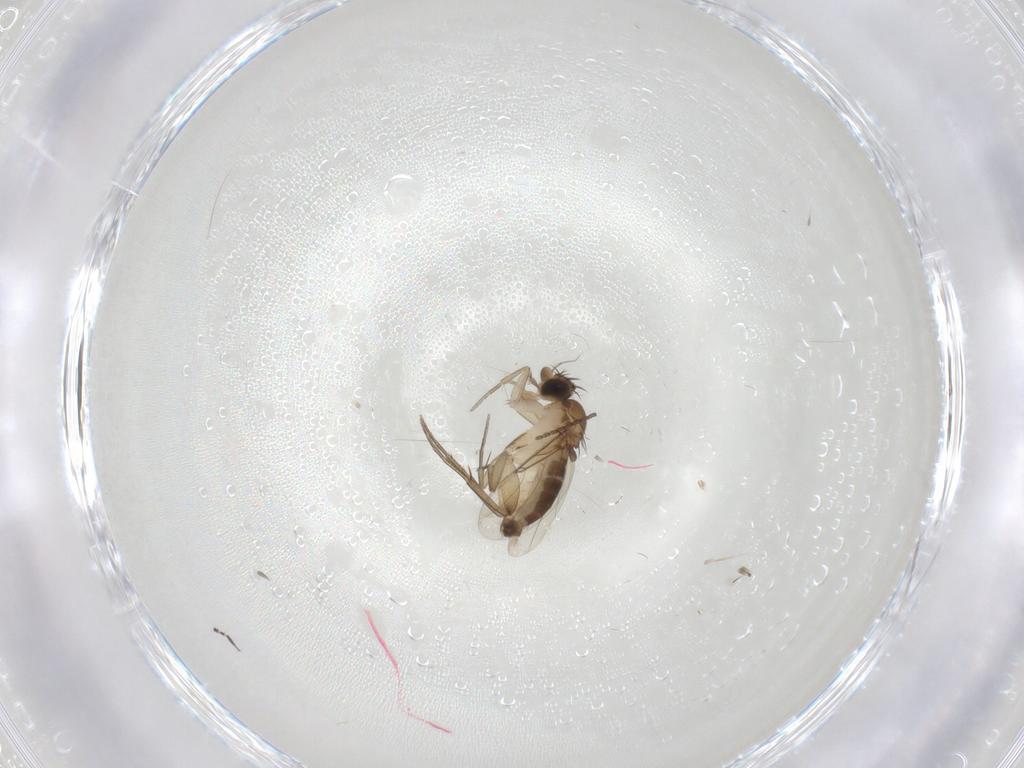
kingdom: Animalia
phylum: Arthropoda
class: Insecta
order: Diptera
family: Phoridae
